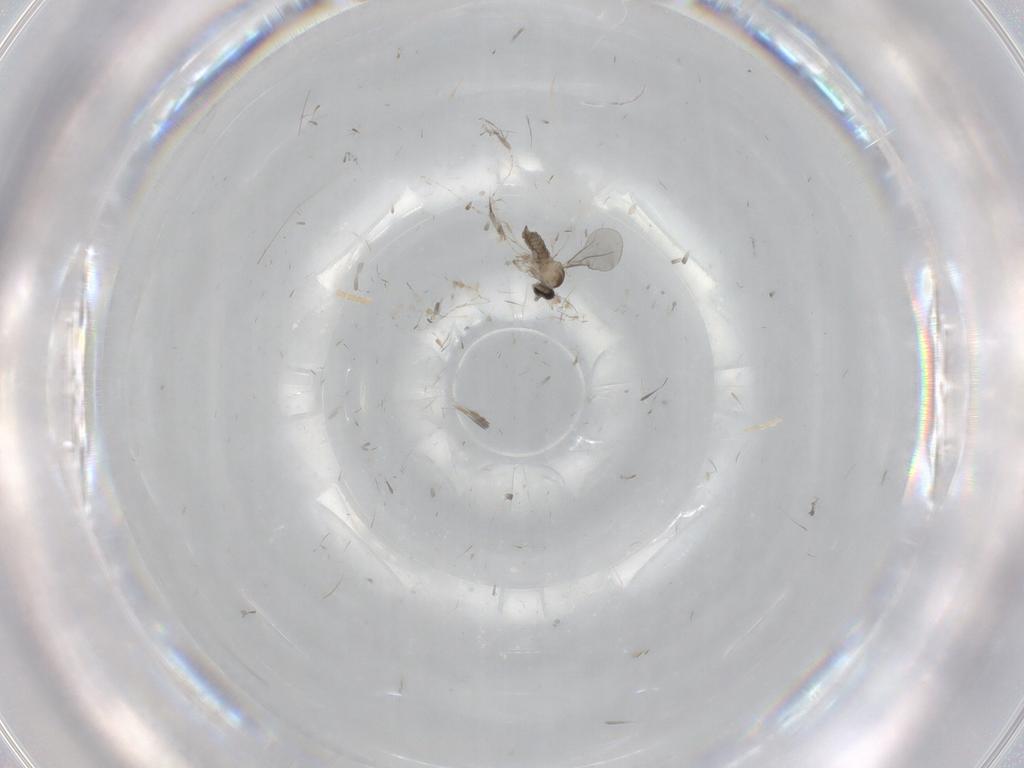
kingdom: Animalia
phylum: Arthropoda
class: Insecta
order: Diptera
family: Cecidomyiidae
